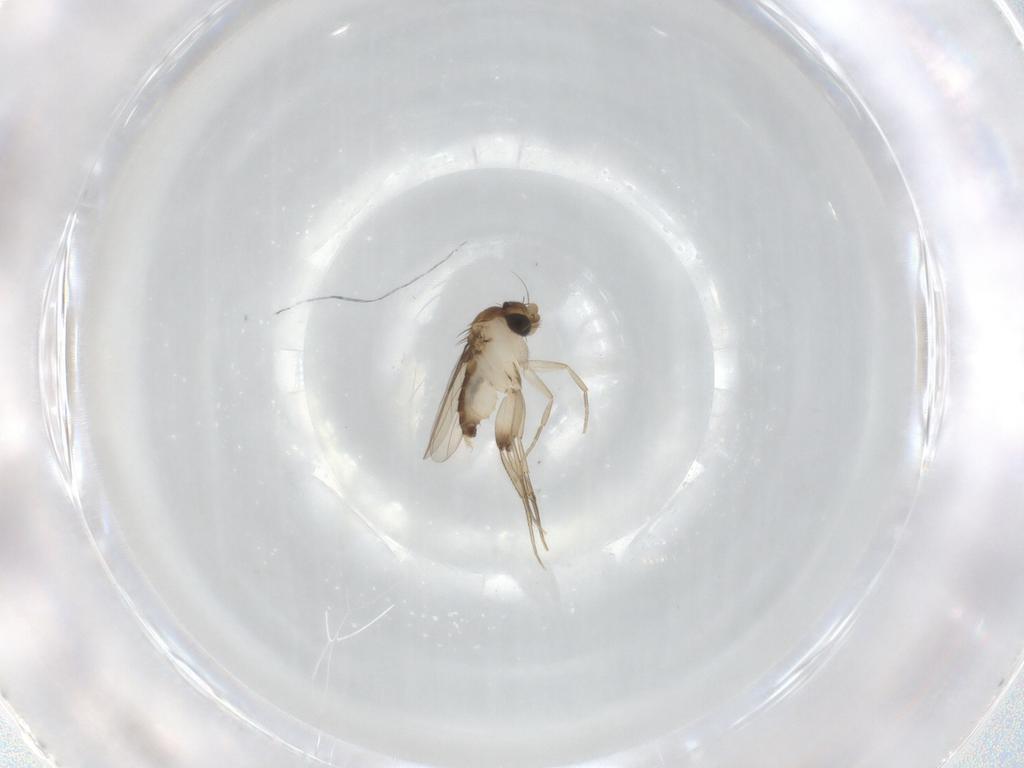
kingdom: Animalia
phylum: Arthropoda
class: Insecta
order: Diptera
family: Phoridae
